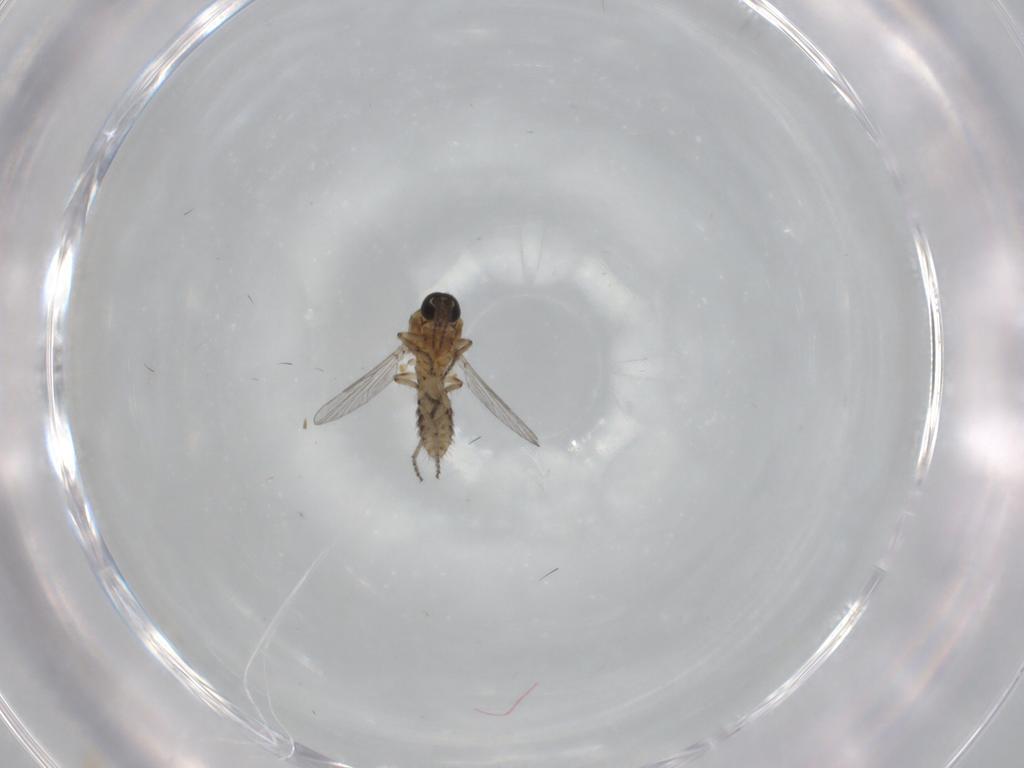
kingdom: Animalia
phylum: Arthropoda
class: Insecta
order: Diptera
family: Ceratopogonidae
